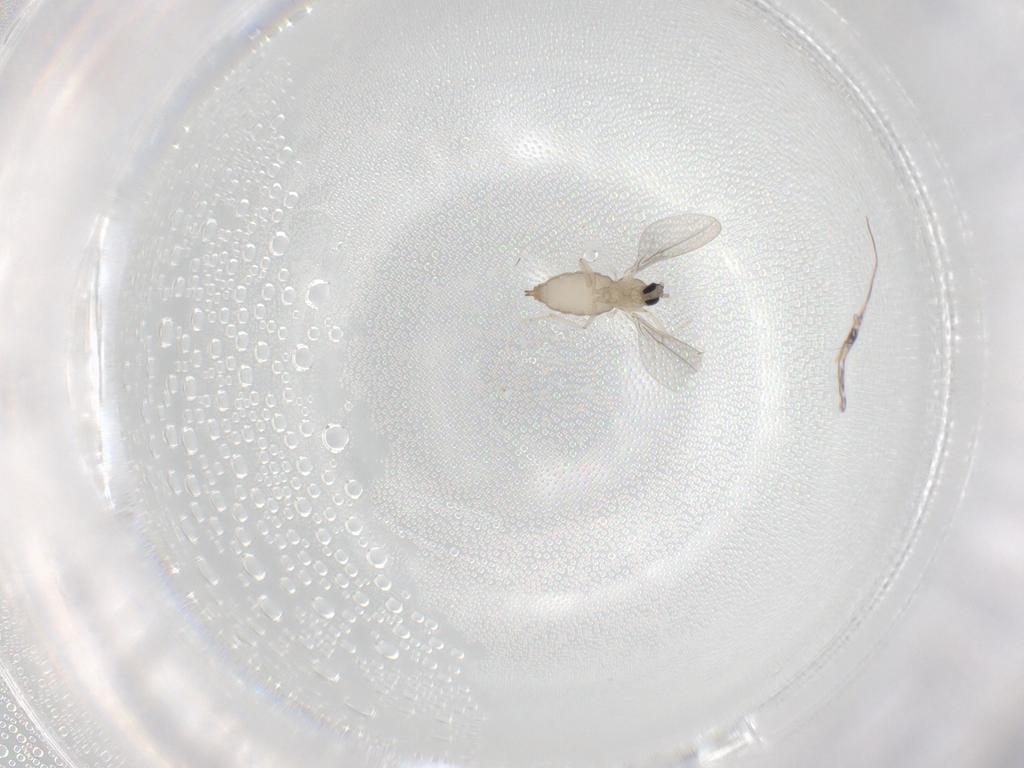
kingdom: Animalia
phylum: Arthropoda
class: Insecta
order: Diptera
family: Cecidomyiidae
